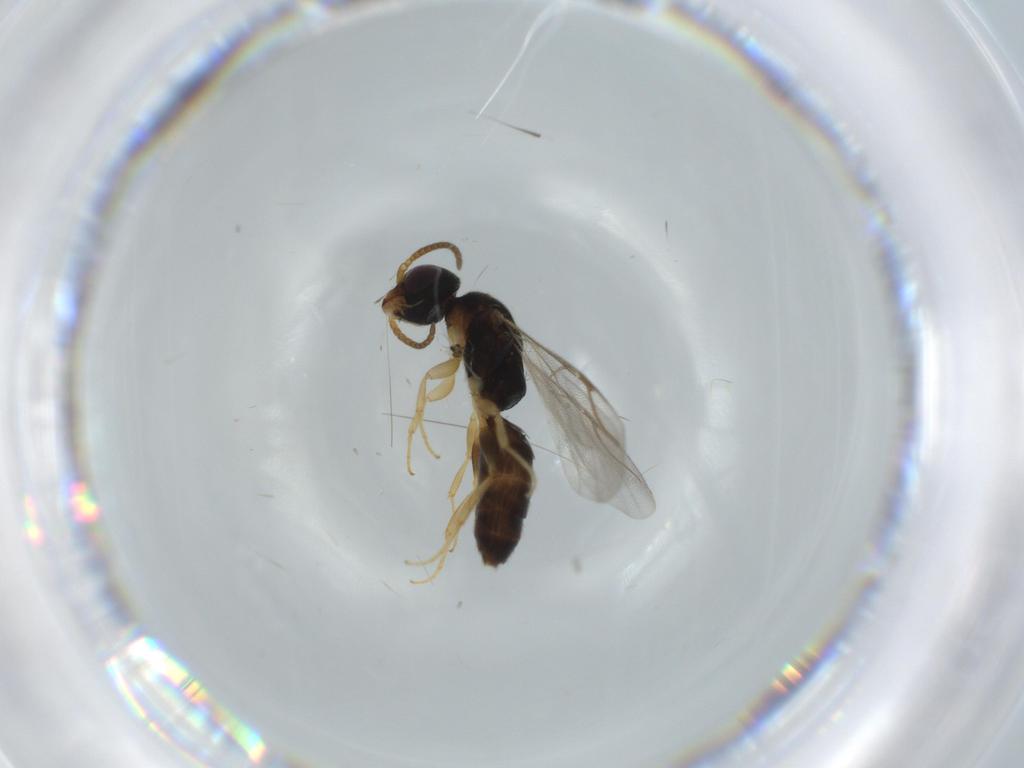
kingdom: Animalia
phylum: Arthropoda
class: Insecta
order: Hymenoptera
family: Bethylidae
